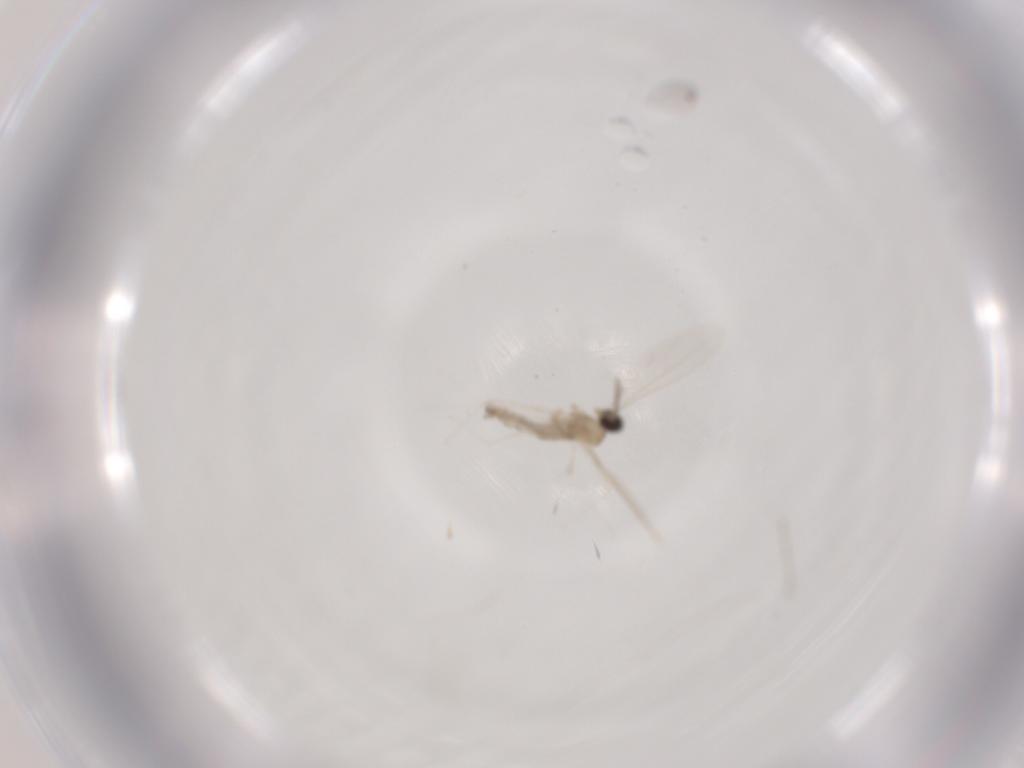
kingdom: Animalia
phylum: Arthropoda
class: Insecta
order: Diptera
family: Cecidomyiidae
